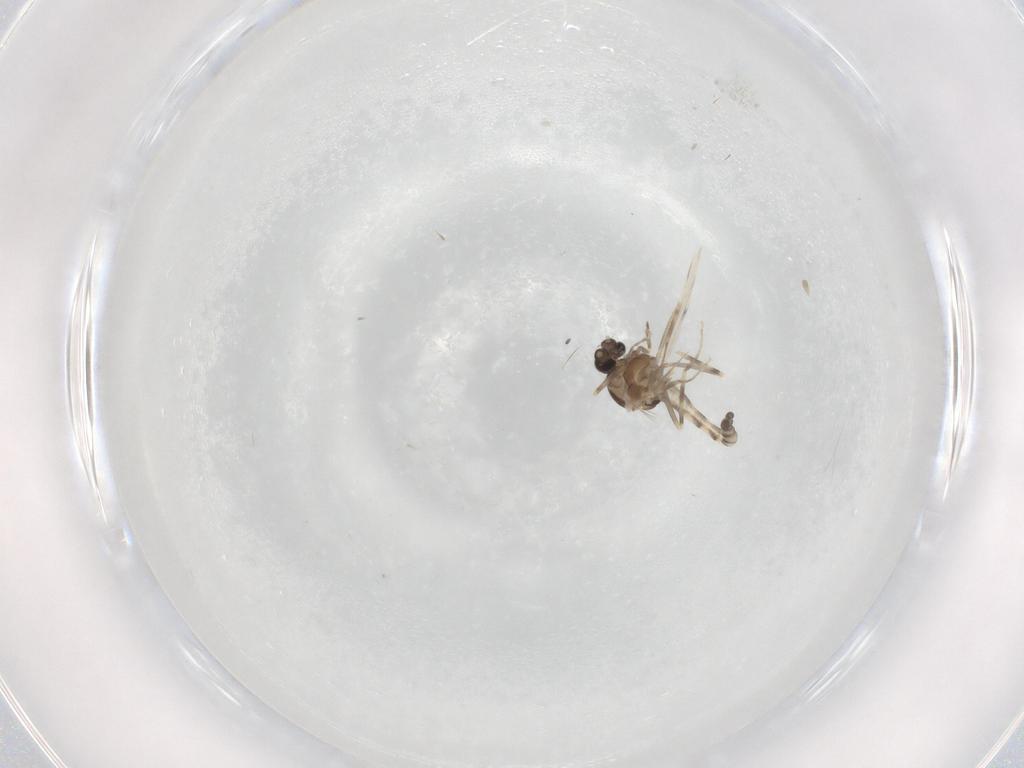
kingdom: Animalia
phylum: Arthropoda
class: Insecta
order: Diptera
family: Ceratopogonidae
